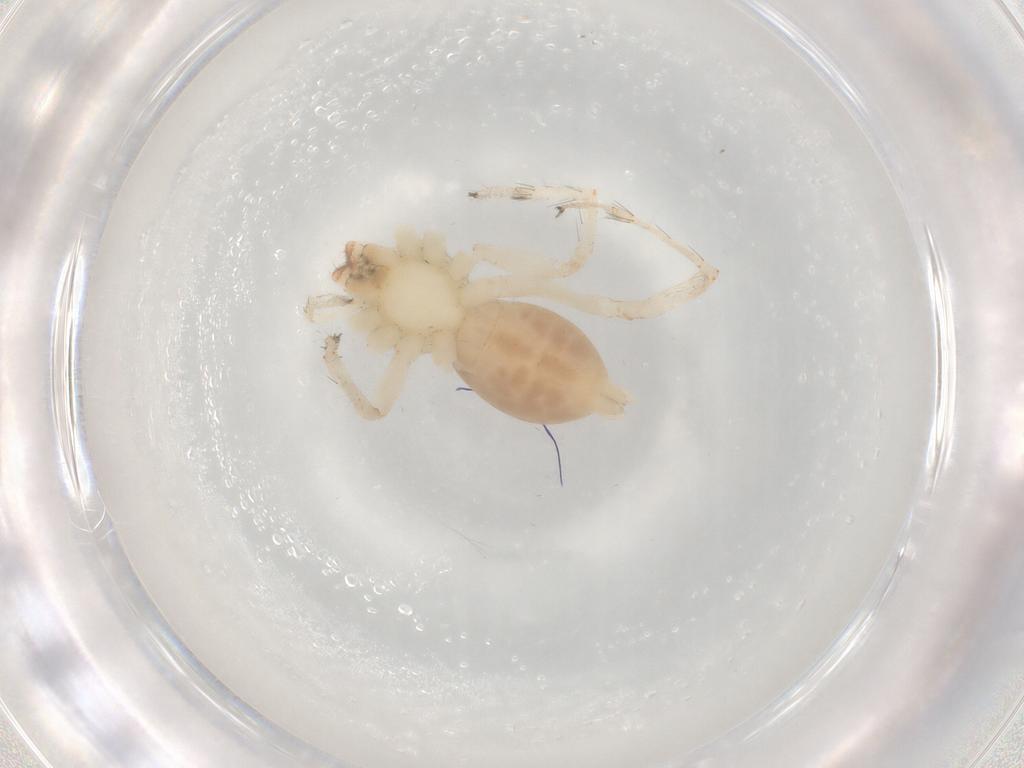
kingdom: Animalia
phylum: Arthropoda
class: Arachnida
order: Araneae
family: Anyphaenidae
